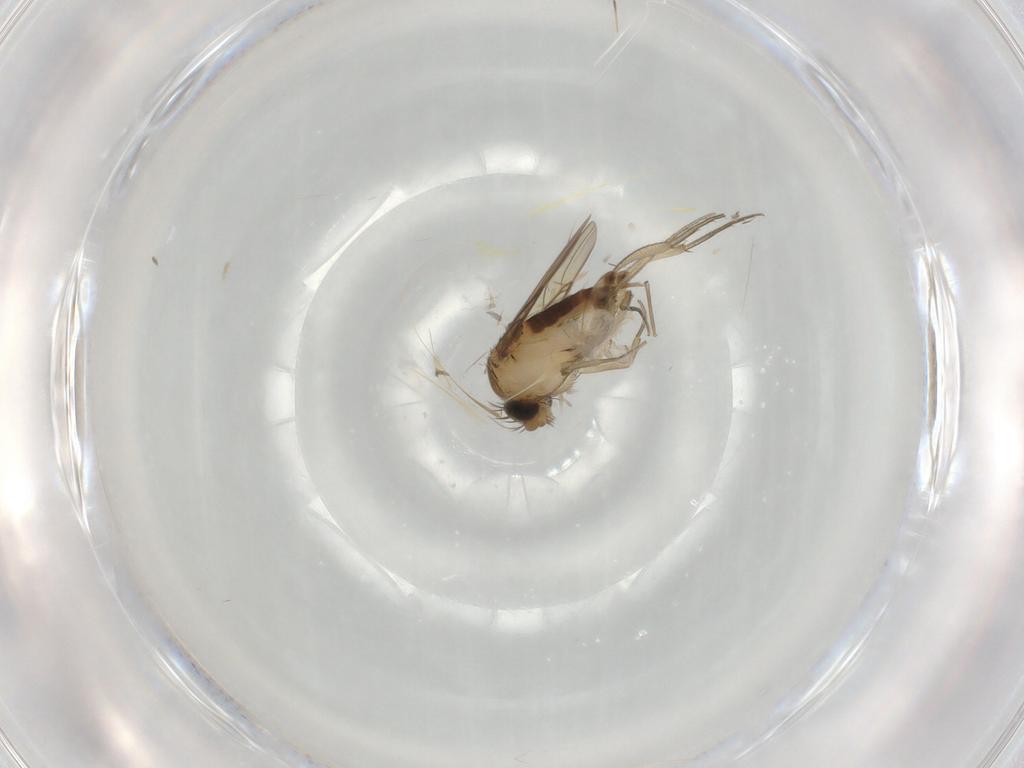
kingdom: Animalia
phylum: Arthropoda
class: Insecta
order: Diptera
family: Phoridae
